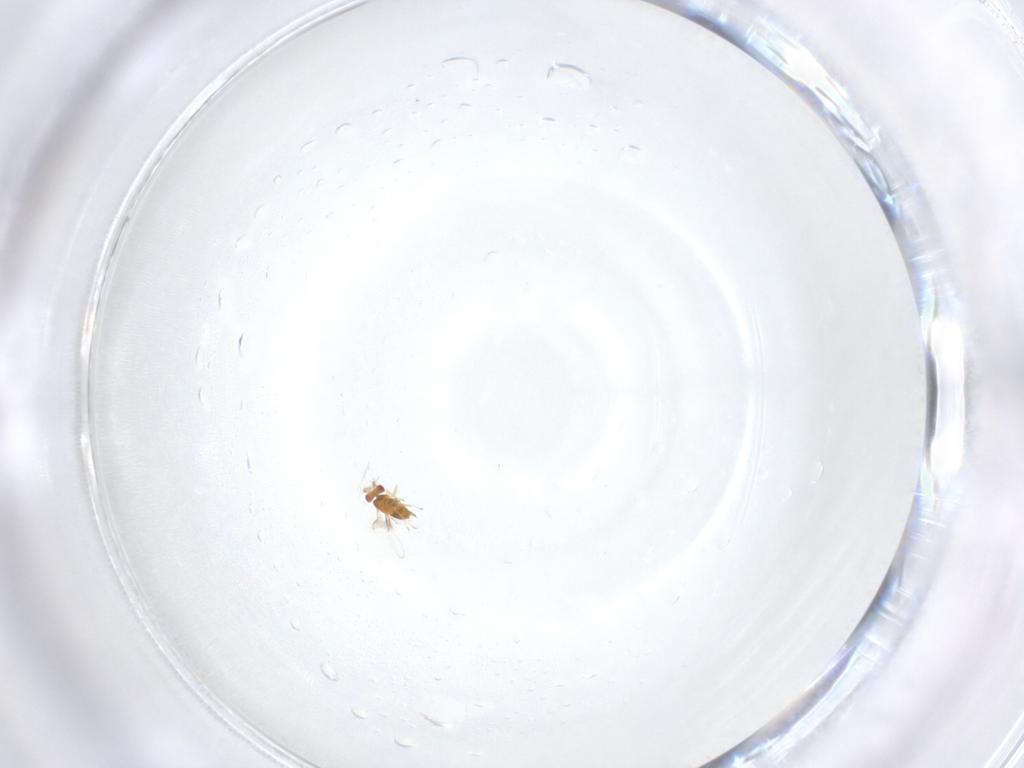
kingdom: Animalia
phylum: Arthropoda
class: Insecta
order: Hymenoptera
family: Trichogrammatidae
